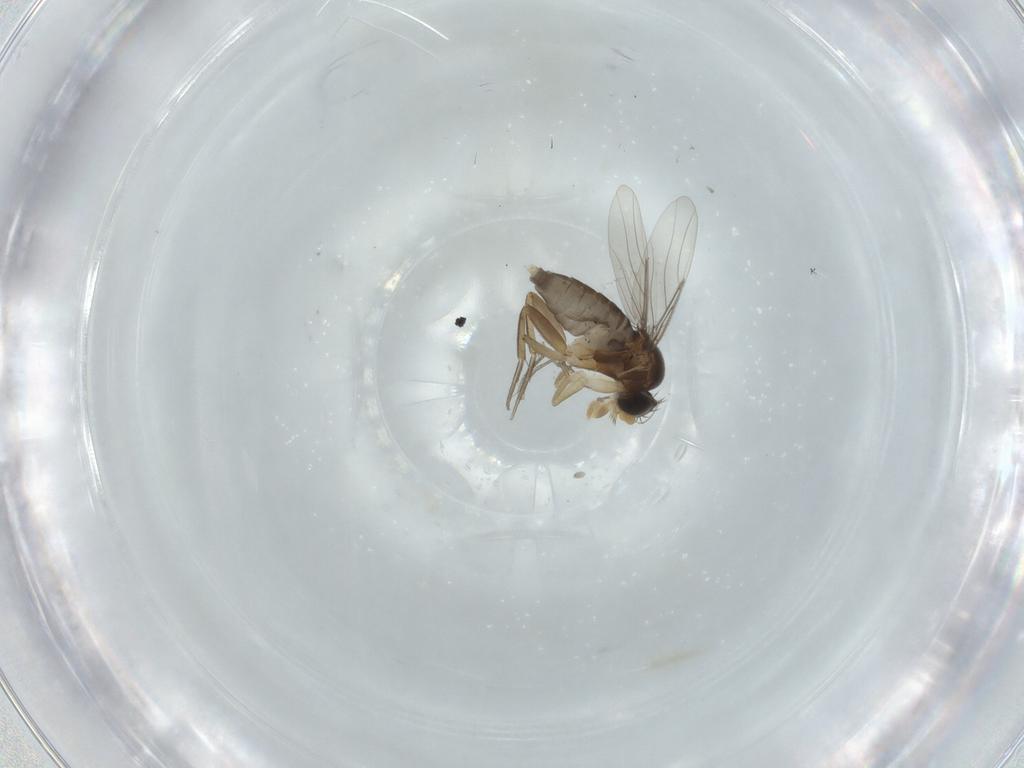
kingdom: Animalia
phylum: Arthropoda
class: Insecta
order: Diptera
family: Phoridae
